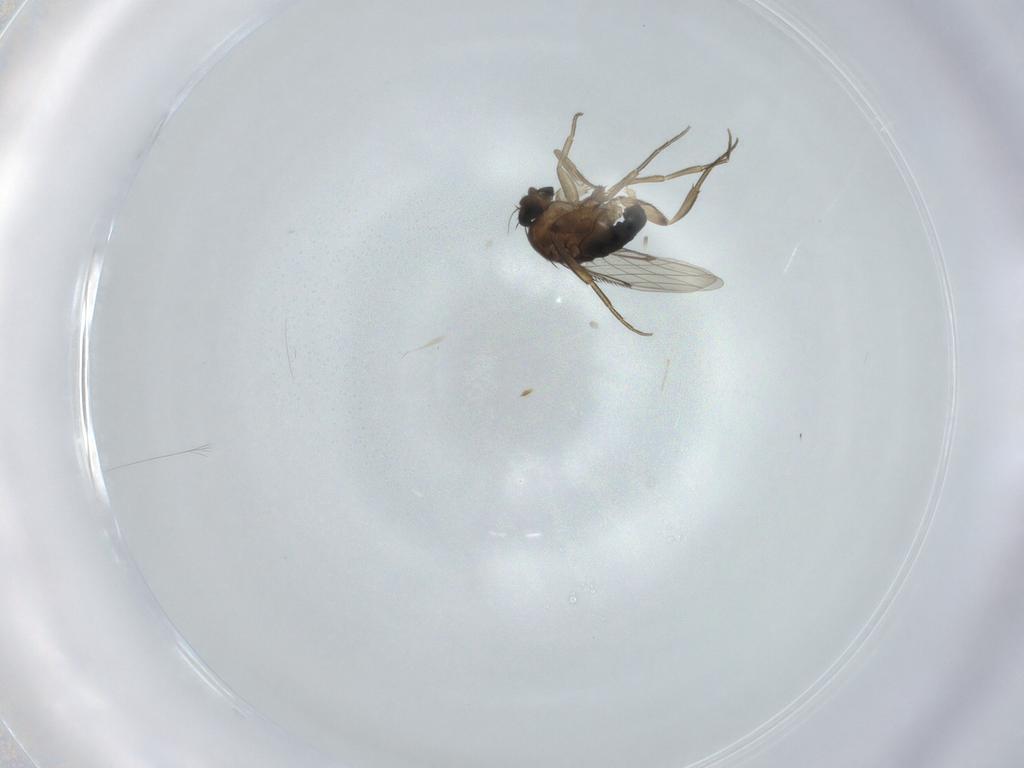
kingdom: Animalia
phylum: Arthropoda
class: Insecta
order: Diptera
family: Phoridae
